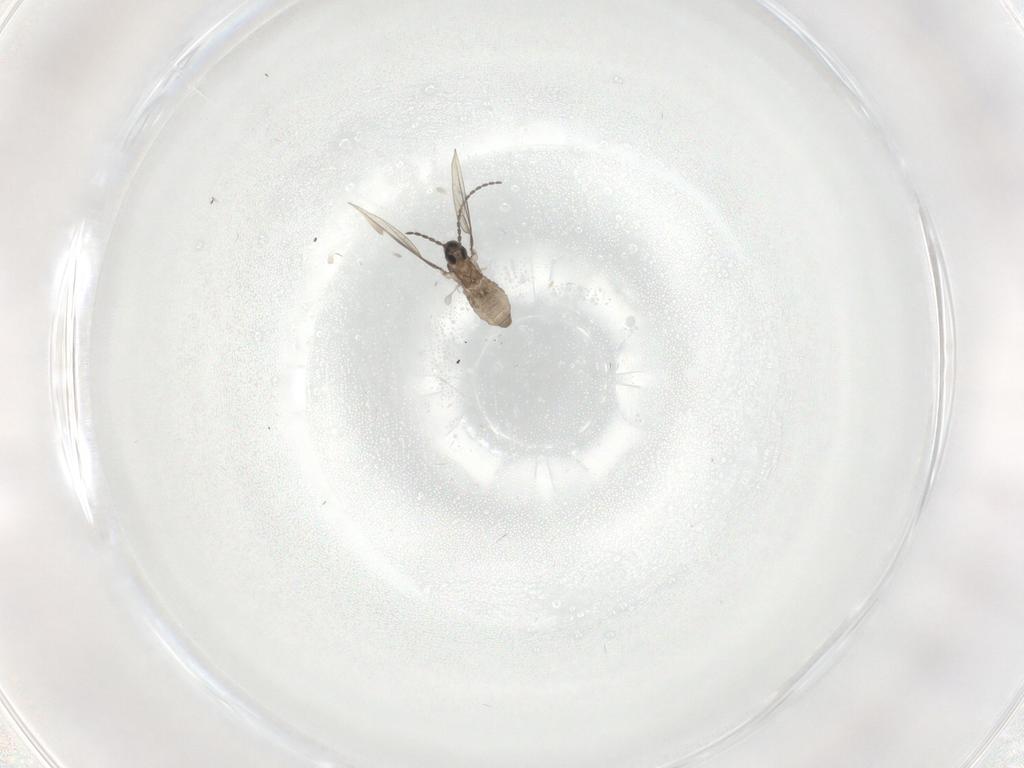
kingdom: Animalia
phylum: Arthropoda
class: Insecta
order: Diptera
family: Cecidomyiidae
